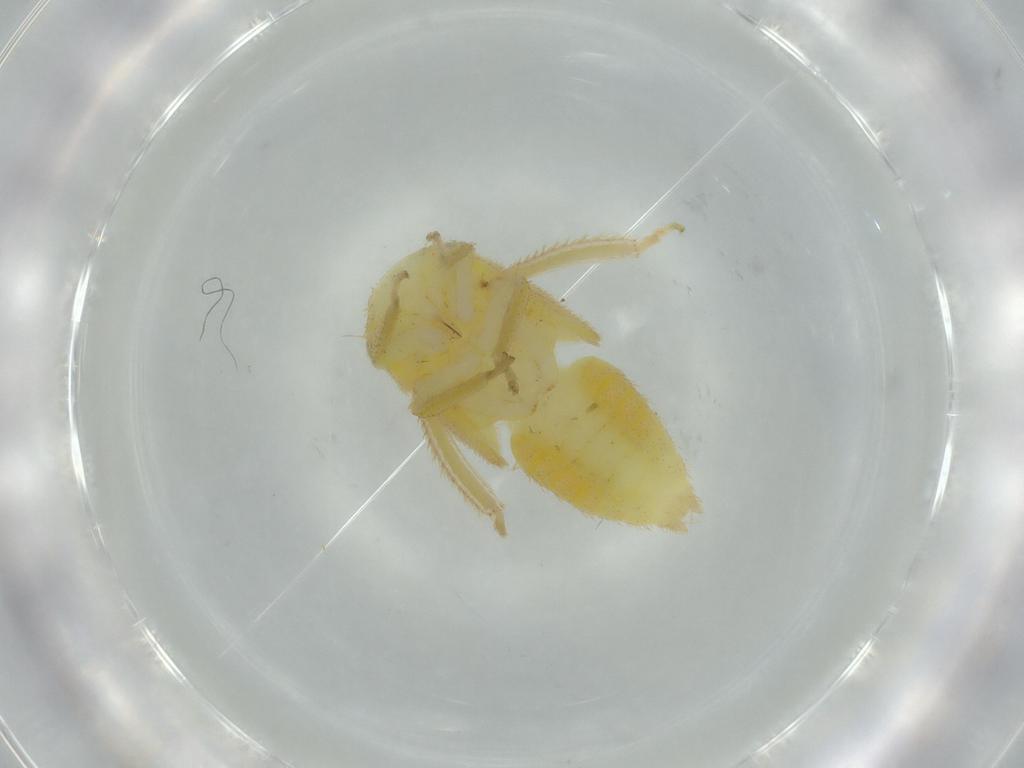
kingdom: Animalia
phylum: Arthropoda
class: Insecta
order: Hemiptera
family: Cicadellidae
